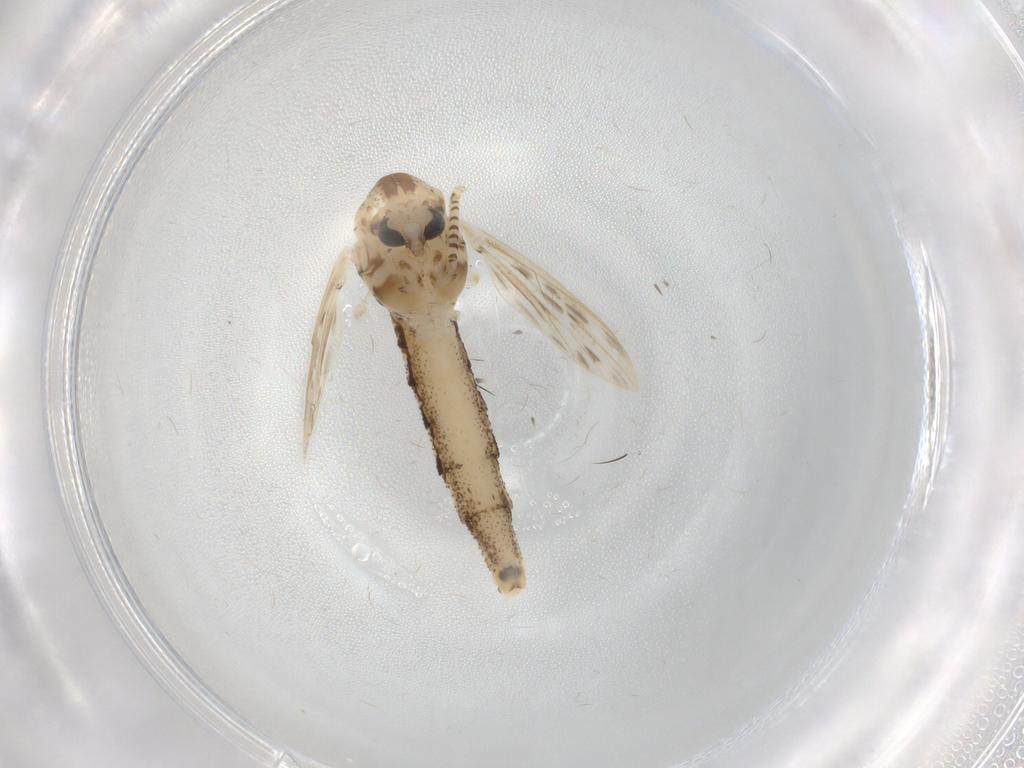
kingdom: Animalia
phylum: Arthropoda
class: Insecta
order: Diptera
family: Chaoboridae
